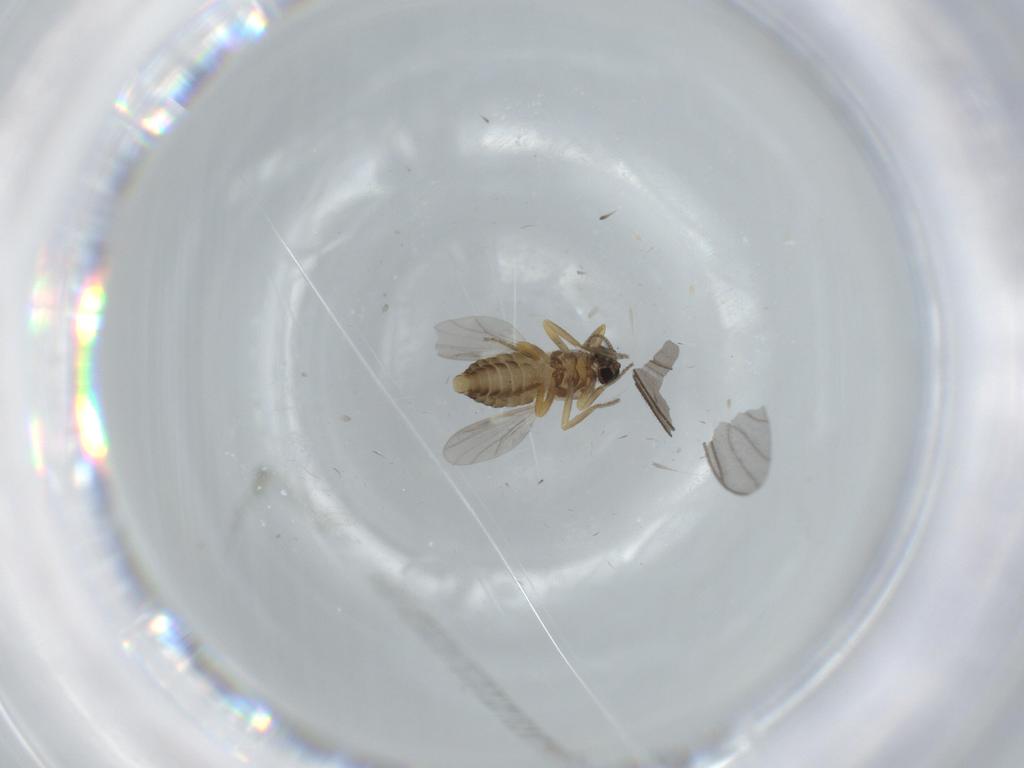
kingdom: Animalia
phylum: Arthropoda
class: Insecta
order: Diptera
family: Ceratopogonidae
